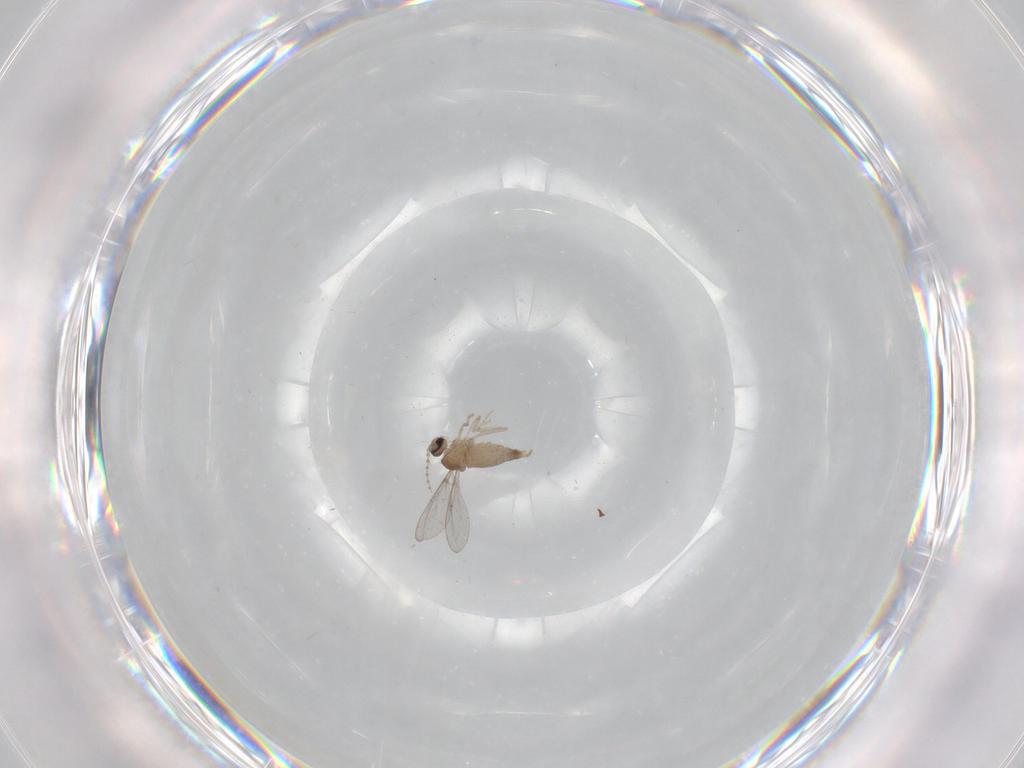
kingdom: Animalia
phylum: Arthropoda
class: Insecta
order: Diptera
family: Cecidomyiidae
